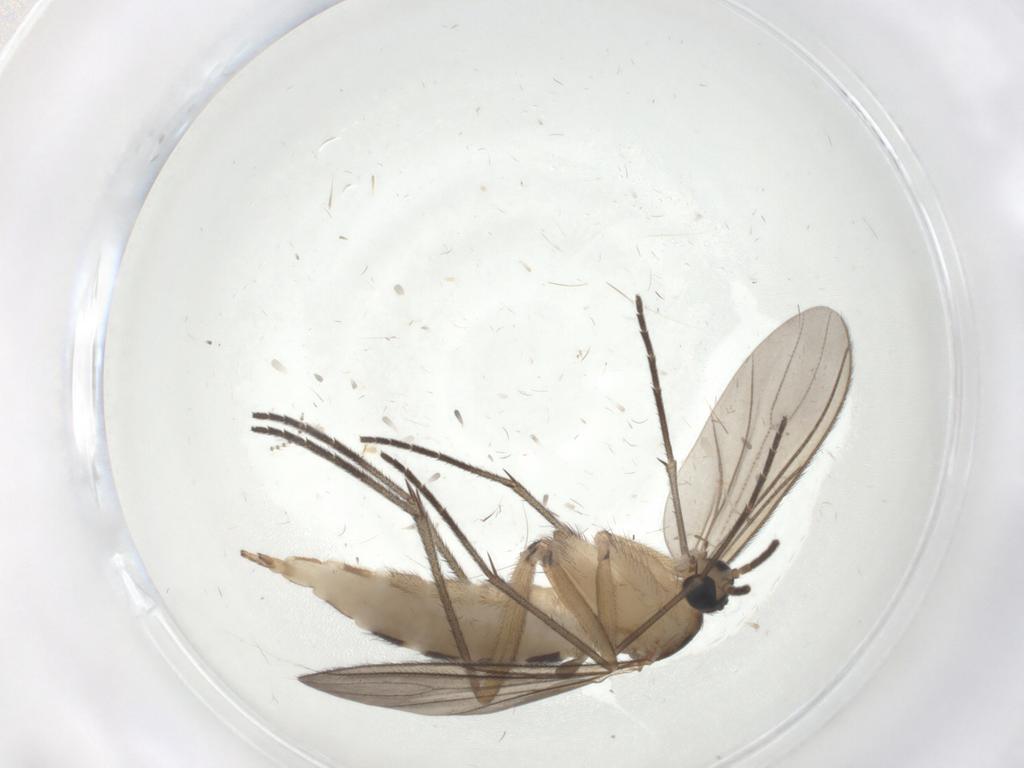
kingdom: Animalia
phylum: Arthropoda
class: Insecta
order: Diptera
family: Sciaridae
